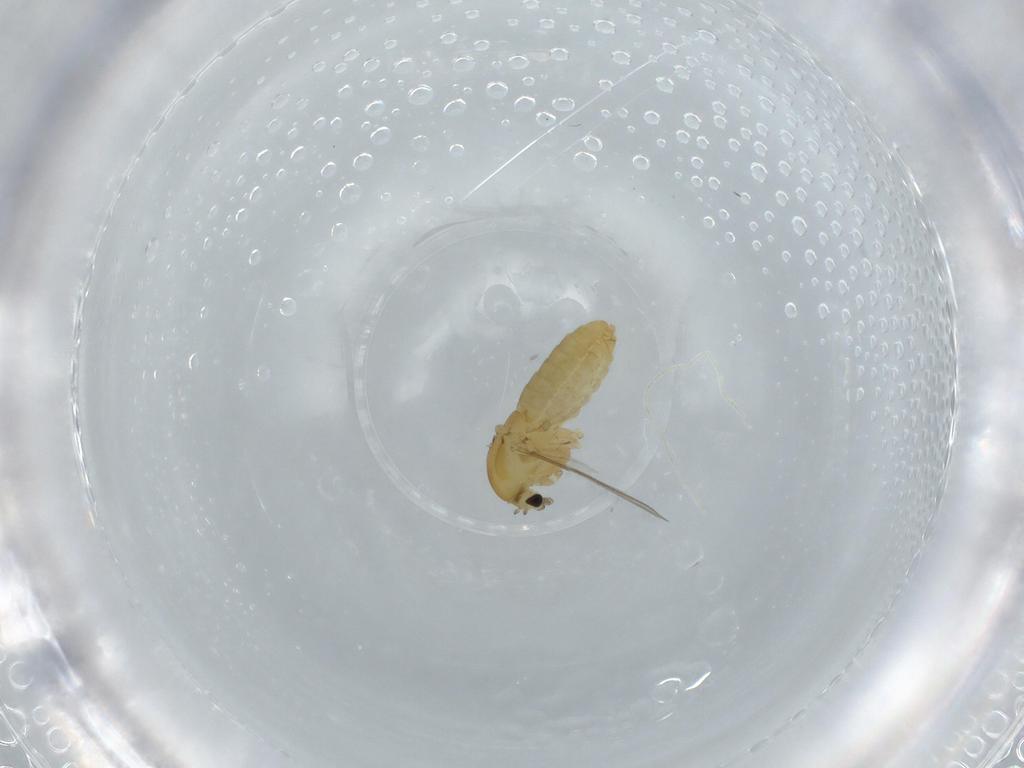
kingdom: Animalia
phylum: Arthropoda
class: Insecta
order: Diptera
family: Chironomidae
